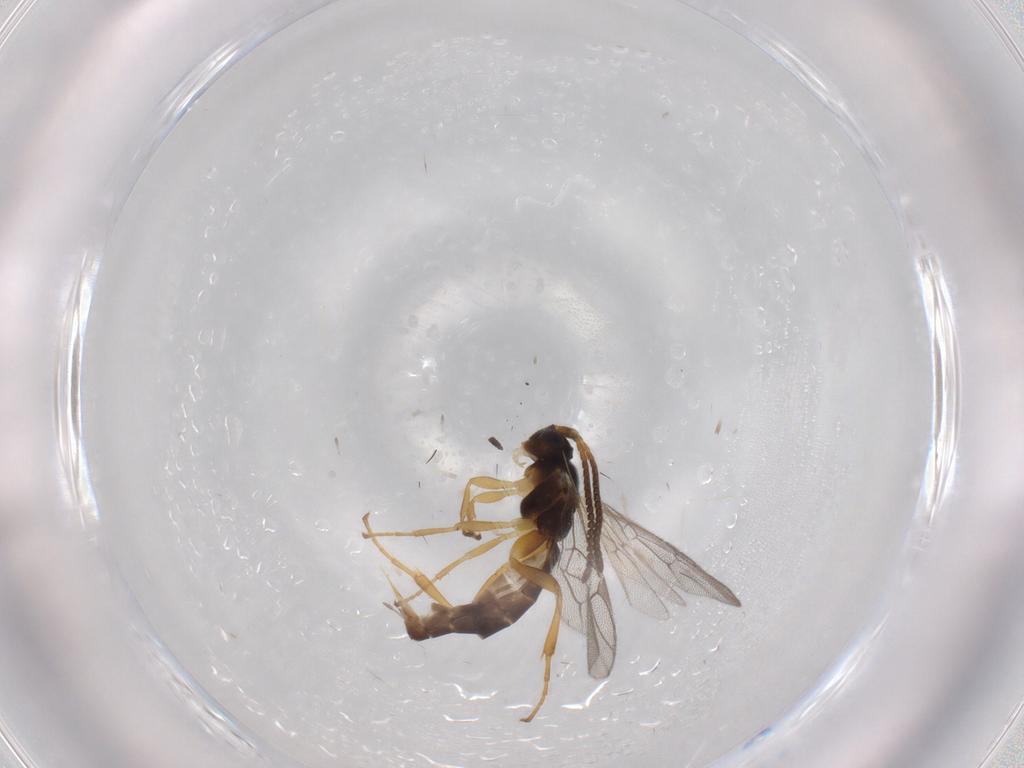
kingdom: Animalia
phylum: Arthropoda
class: Insecta
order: Hymenoptera
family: Ichneumonidae
